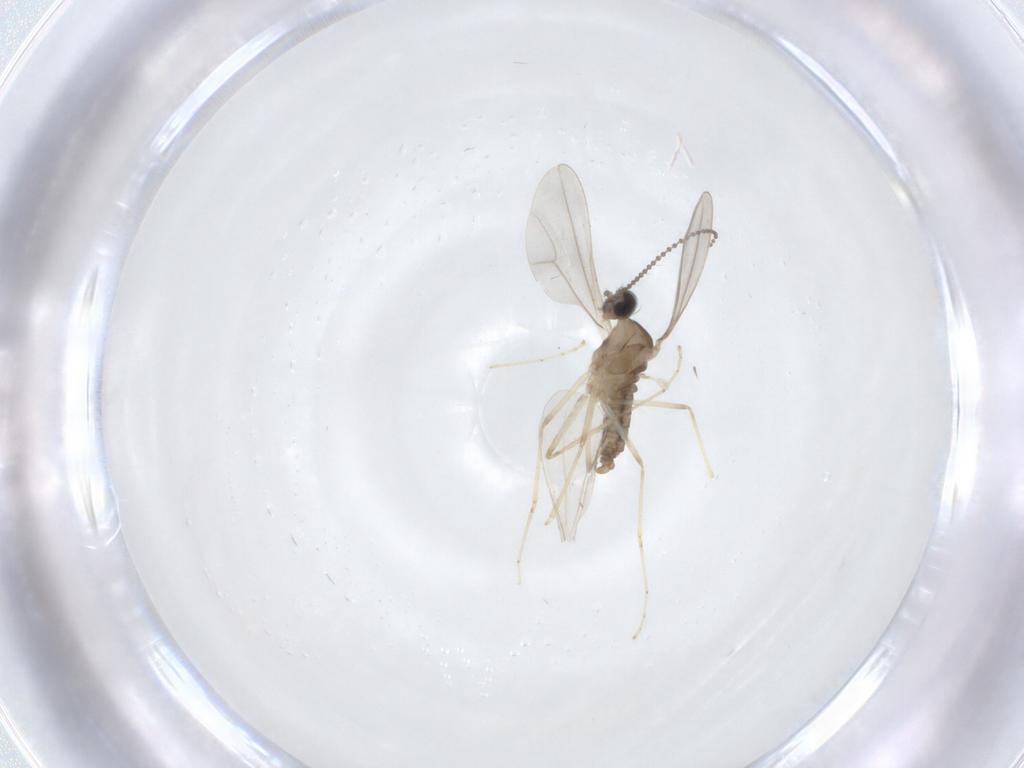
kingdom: Animalia
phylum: Arthropoda
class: Insecta
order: Diptera
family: Cecidomyiidae
